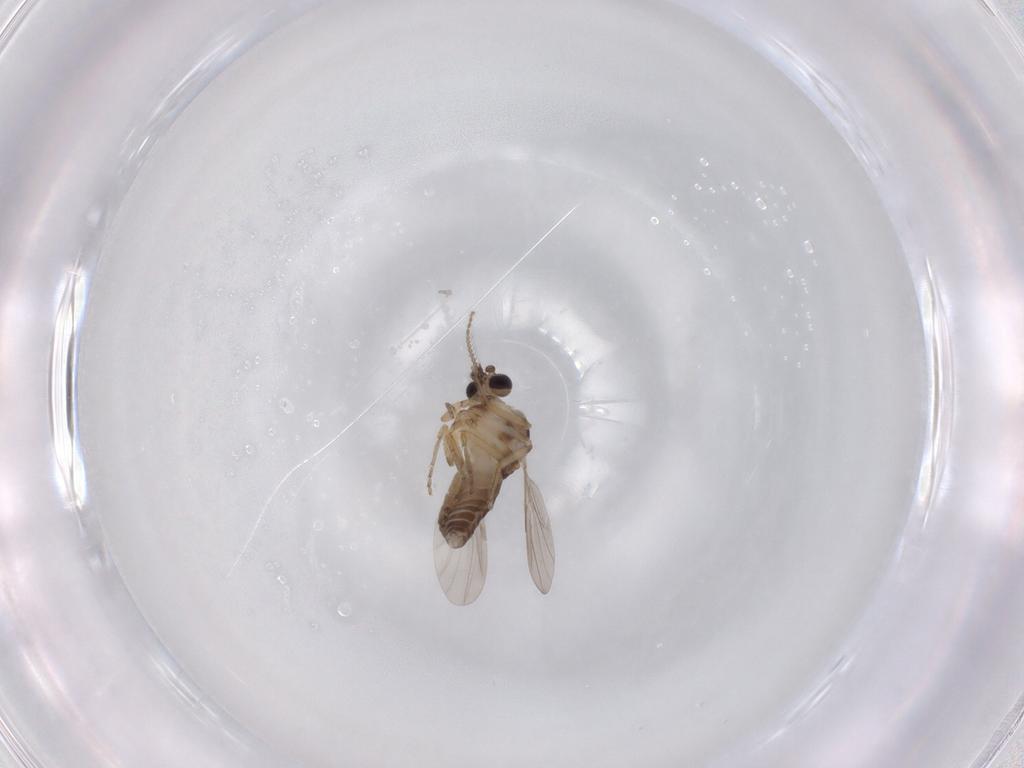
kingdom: Animalia
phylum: Arthropoda
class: Insecta
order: Diptera
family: Ceratopogonidae
